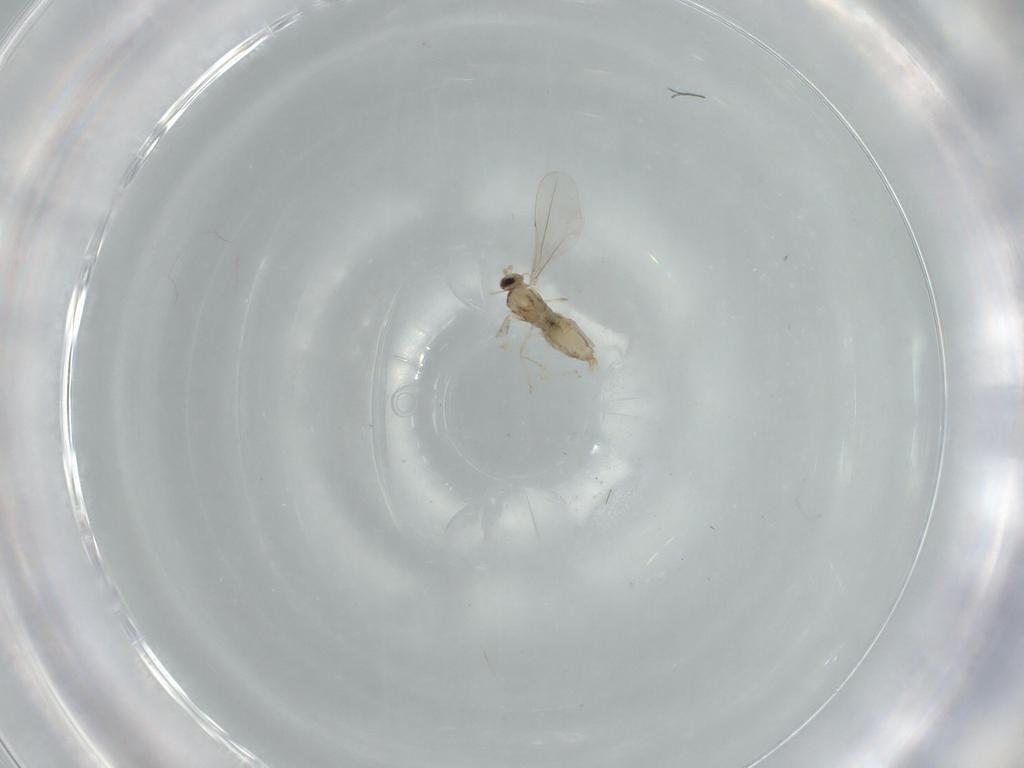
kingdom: Animalia
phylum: Arthropoda
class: Insecta
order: Diptera
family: Cecidomyiidae
